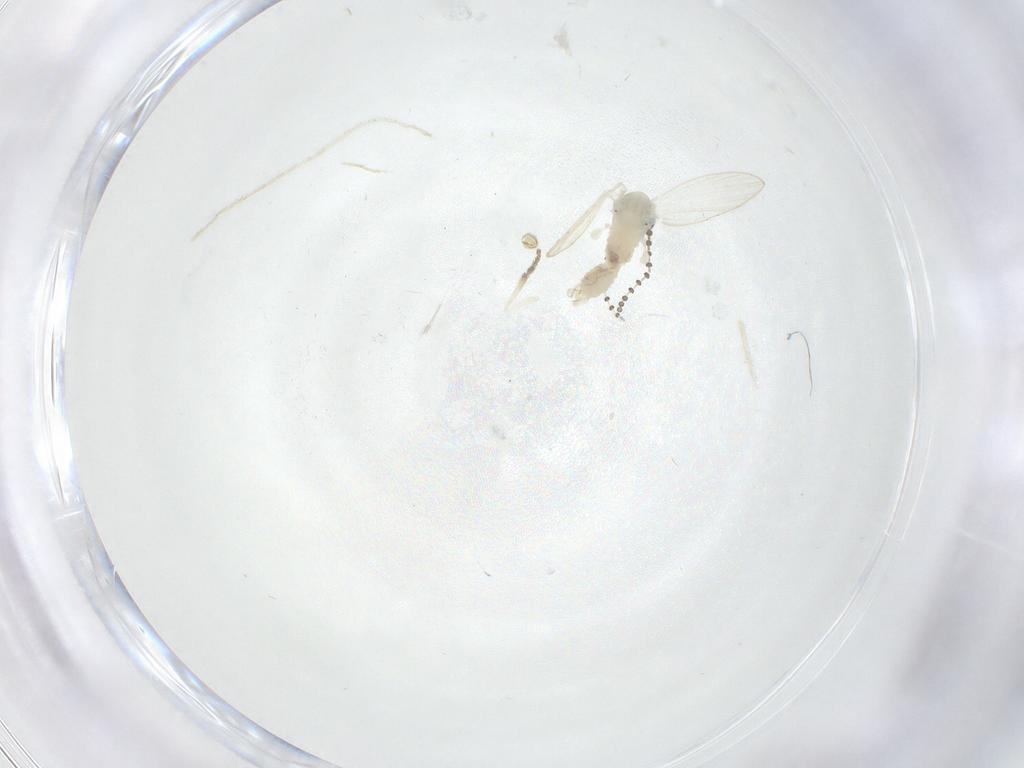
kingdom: Animalia
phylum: Arthropoda
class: Insecta
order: Diptera
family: Psychodidae
